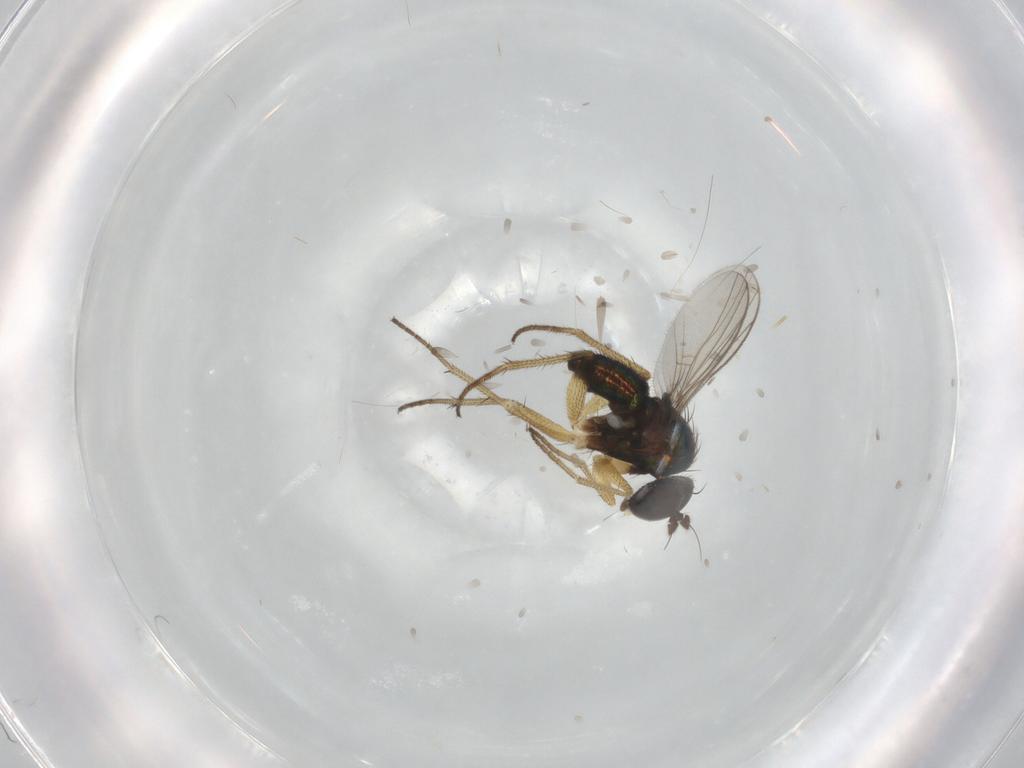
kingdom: Animalia
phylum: Arthropoda
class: Insecta
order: Diptera
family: Dolichopodidae
